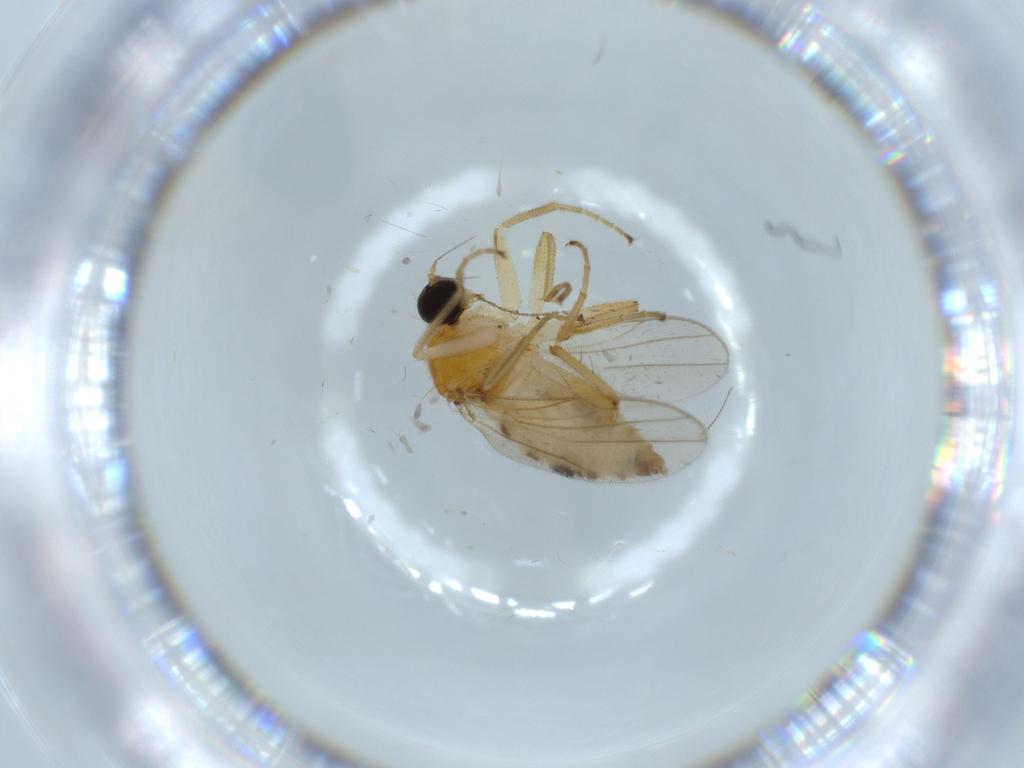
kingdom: Animalia
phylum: Arthropoda
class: Insecta
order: Diptera
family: Hybotidae
